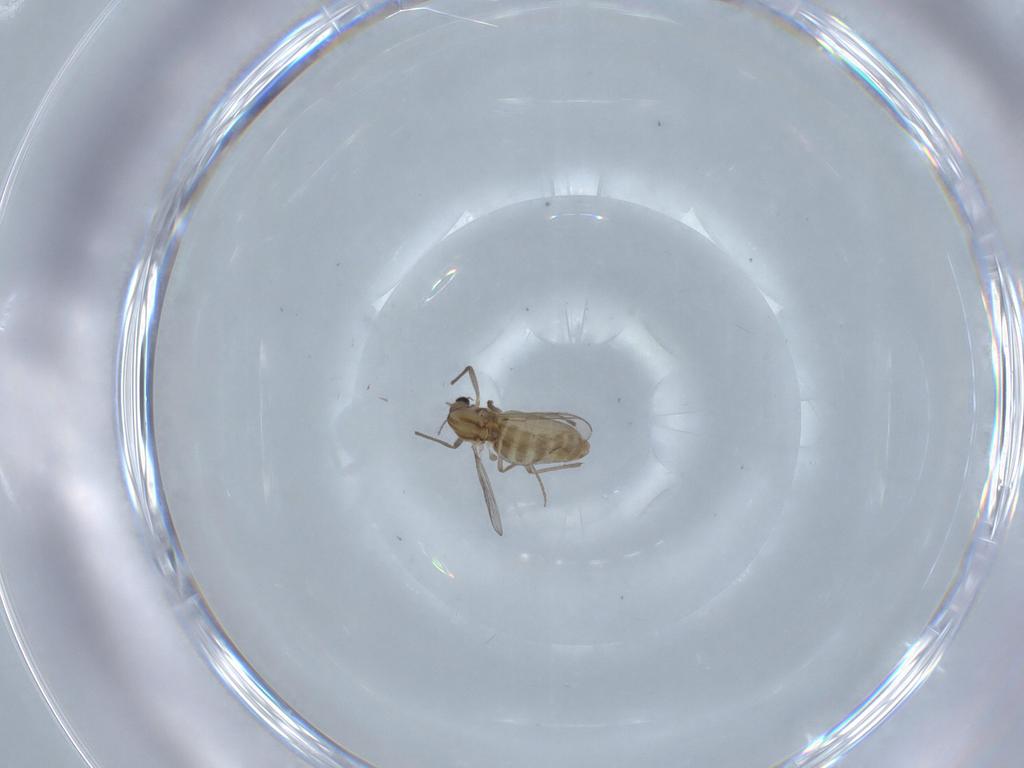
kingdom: Animalia
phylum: Arthropoda
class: Insecta
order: Diptera
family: Chironomidae
